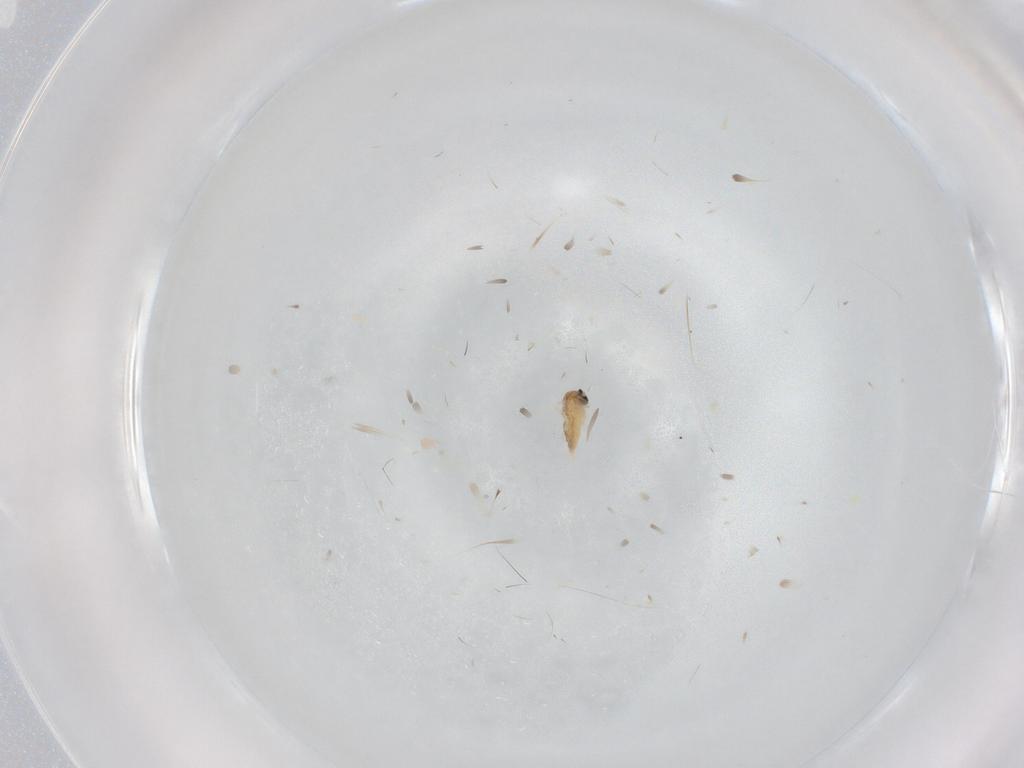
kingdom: Animalia
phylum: Arthropoda
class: Insecta
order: Diptera
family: Cecidomyiidae
